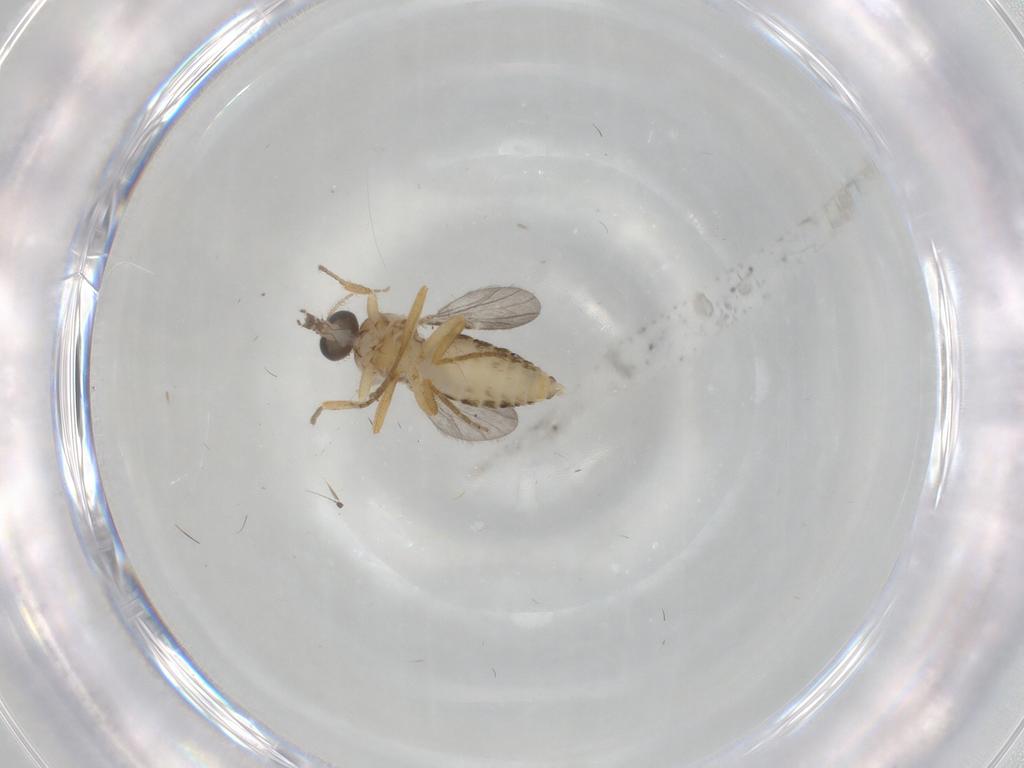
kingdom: Animalia
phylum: Arthropoda
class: Insecta
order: Diptera
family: Ceratopogonidae
